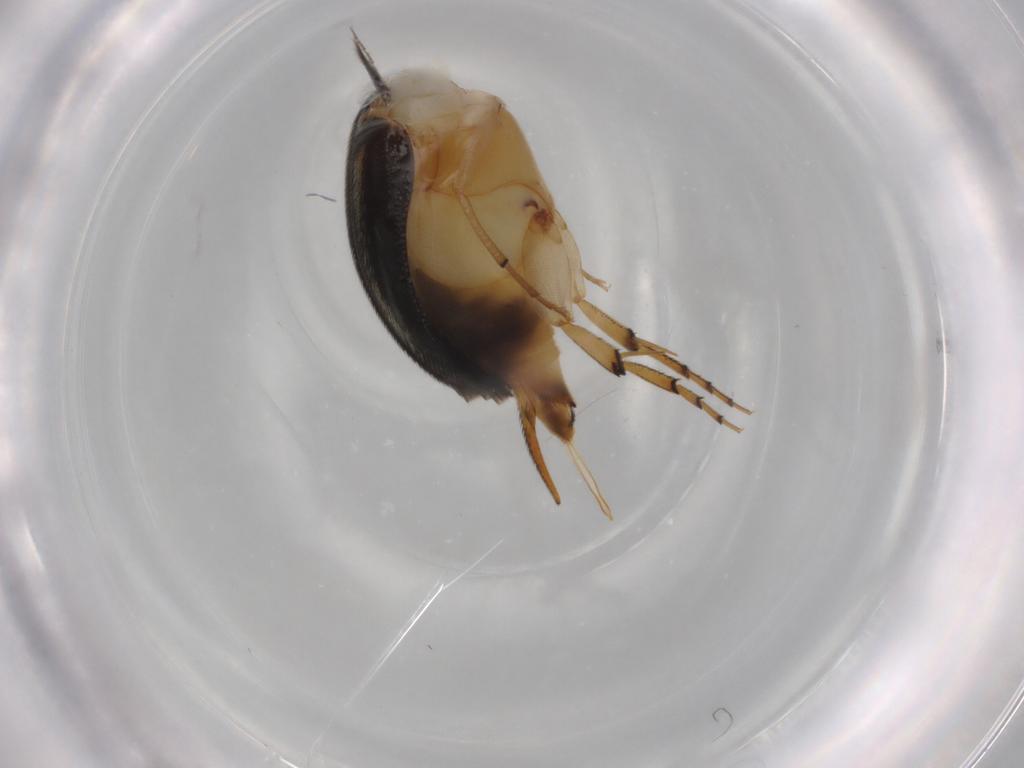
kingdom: Animalia
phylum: Arthropoda
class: Insecta
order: Coleoptera
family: Mordellidae
